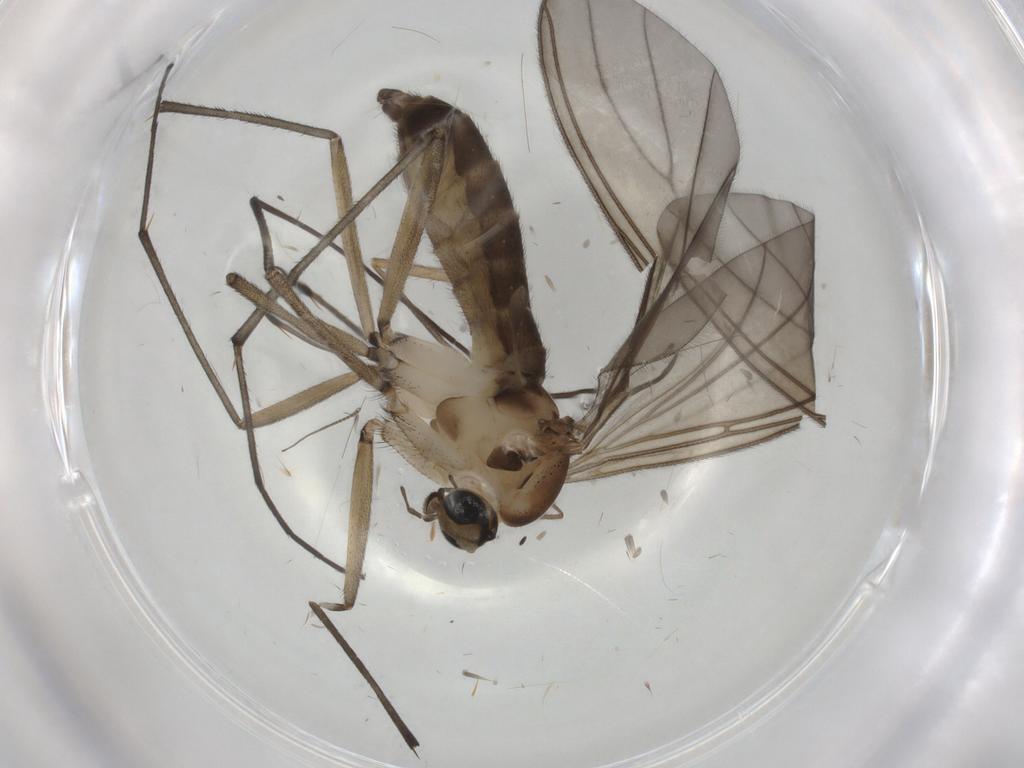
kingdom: Animalia
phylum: Arthropoda
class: Insecta
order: Diptera
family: Sciaridae
